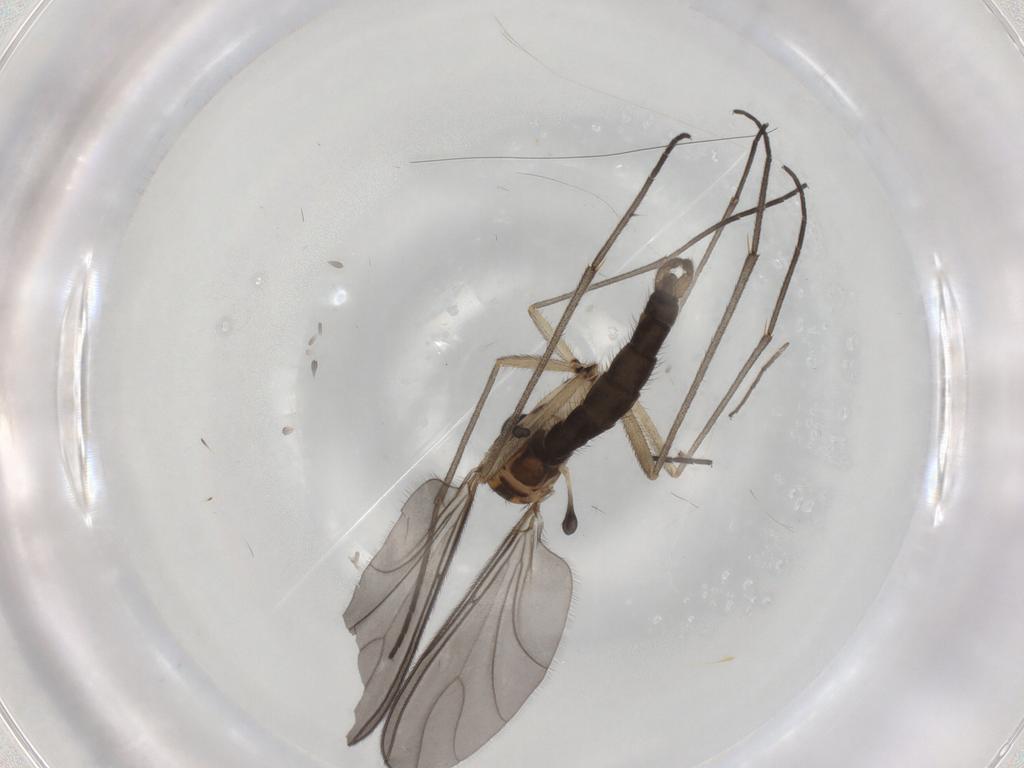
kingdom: Animalia
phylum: Arthropoda
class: Insecta
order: Diptera
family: Sciaridae
